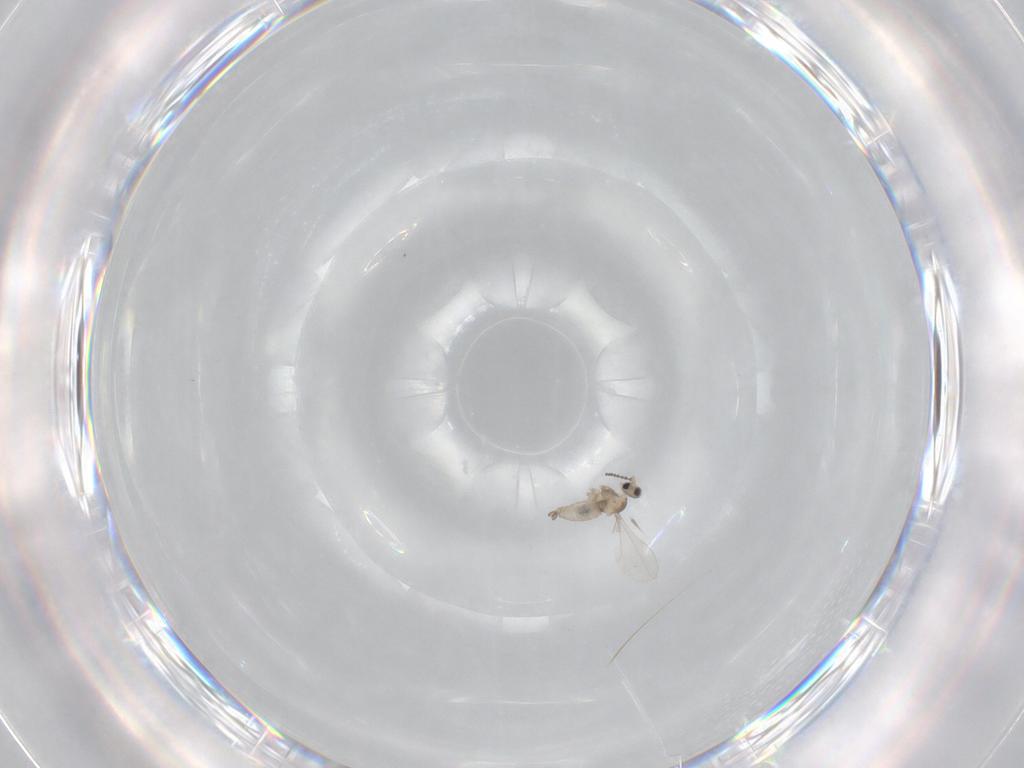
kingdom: Animalia
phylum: Arthropoda
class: Insecta
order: Diptera
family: Cecidomyiidae
